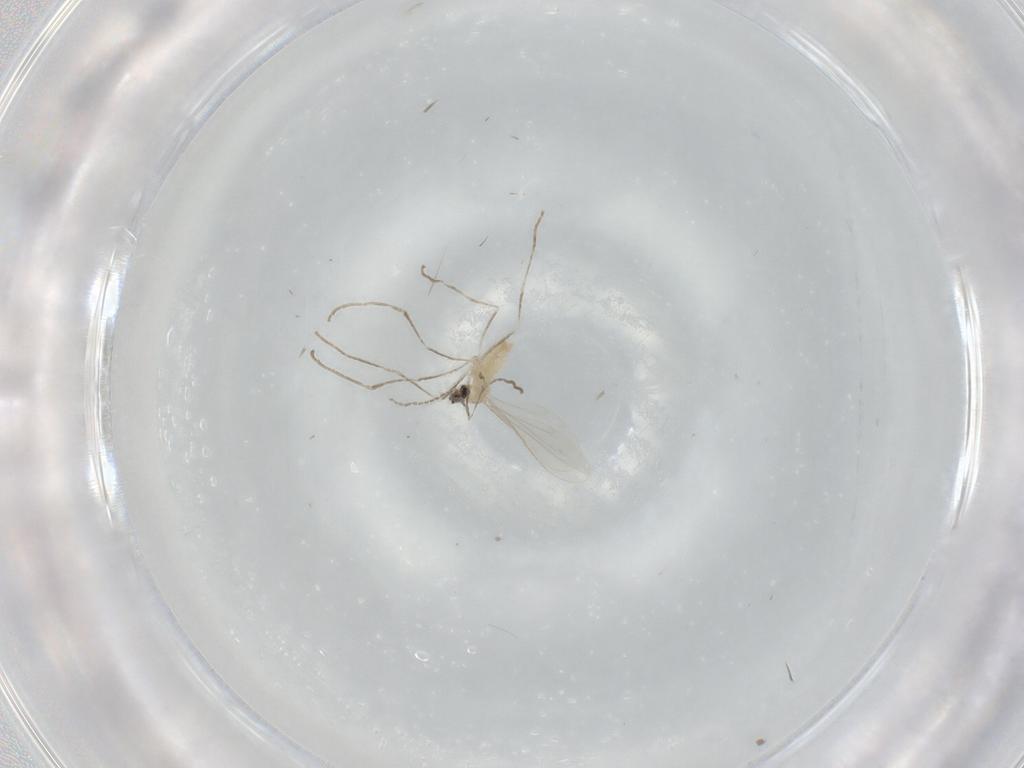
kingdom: Animalia
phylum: Arthropoda
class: Insecta
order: Diptera
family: Cecidomyiidae
